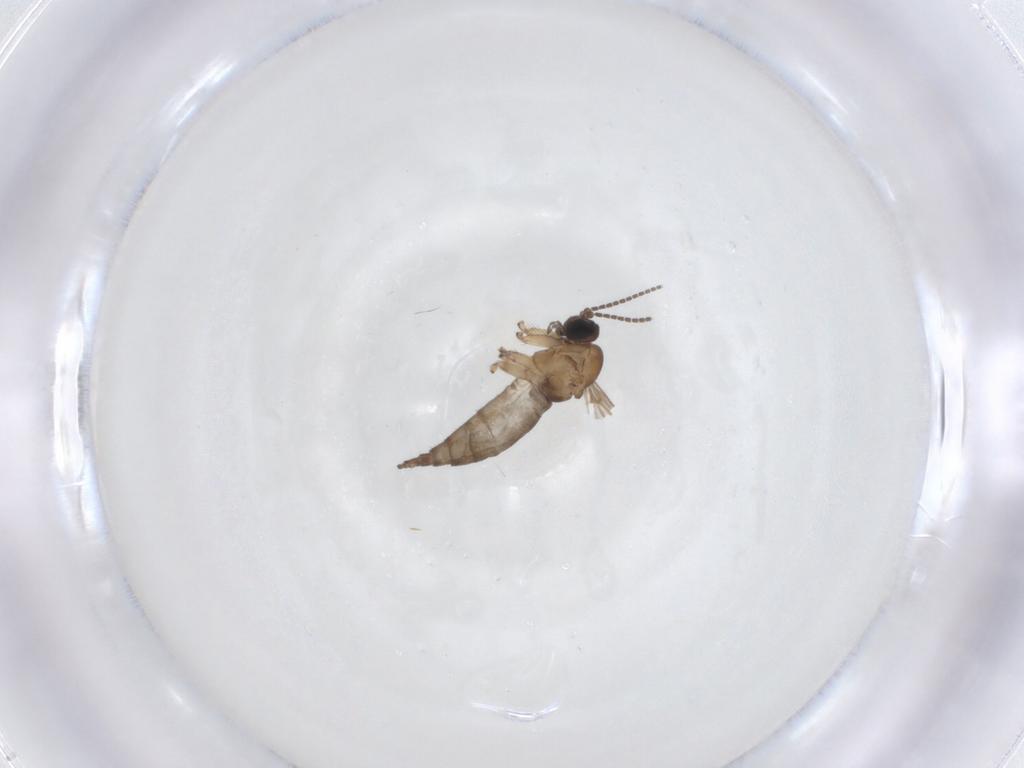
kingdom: Animalia
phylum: Arthropoda
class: Insecta
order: Diptera
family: Sciaridae
